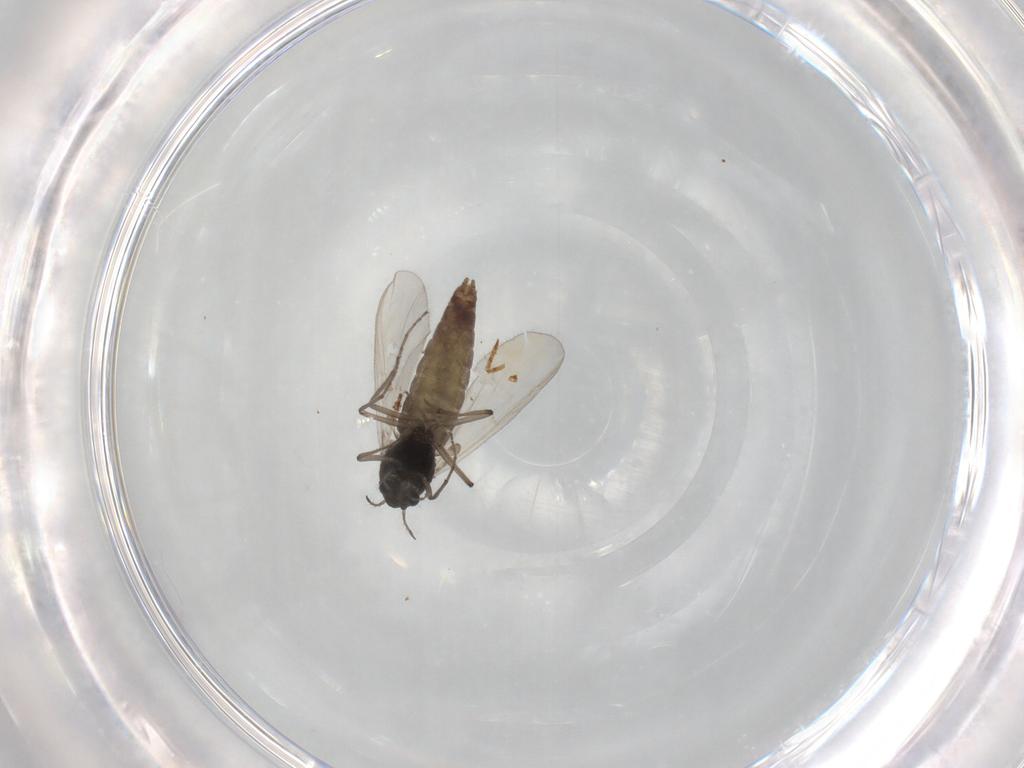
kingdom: Animalia
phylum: Arthropoda
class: Insecta
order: Diptera
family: Chironomidae
